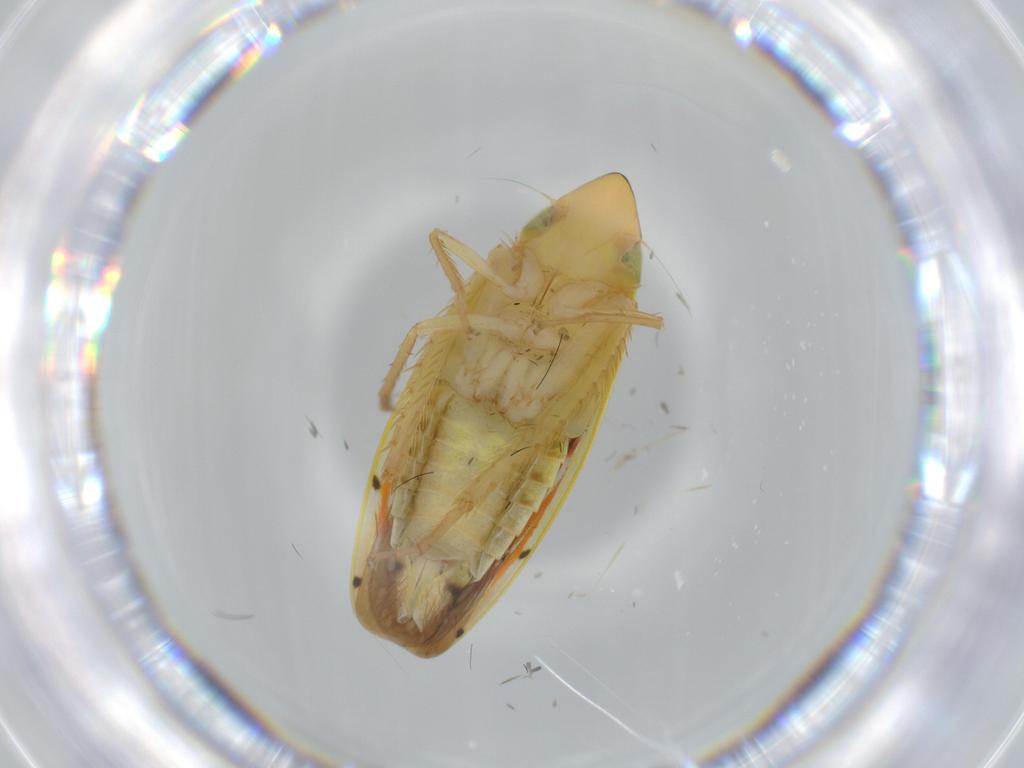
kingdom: Animalia
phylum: Arthropoda
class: Insecta
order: Hemiptera
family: Cicadellidae
